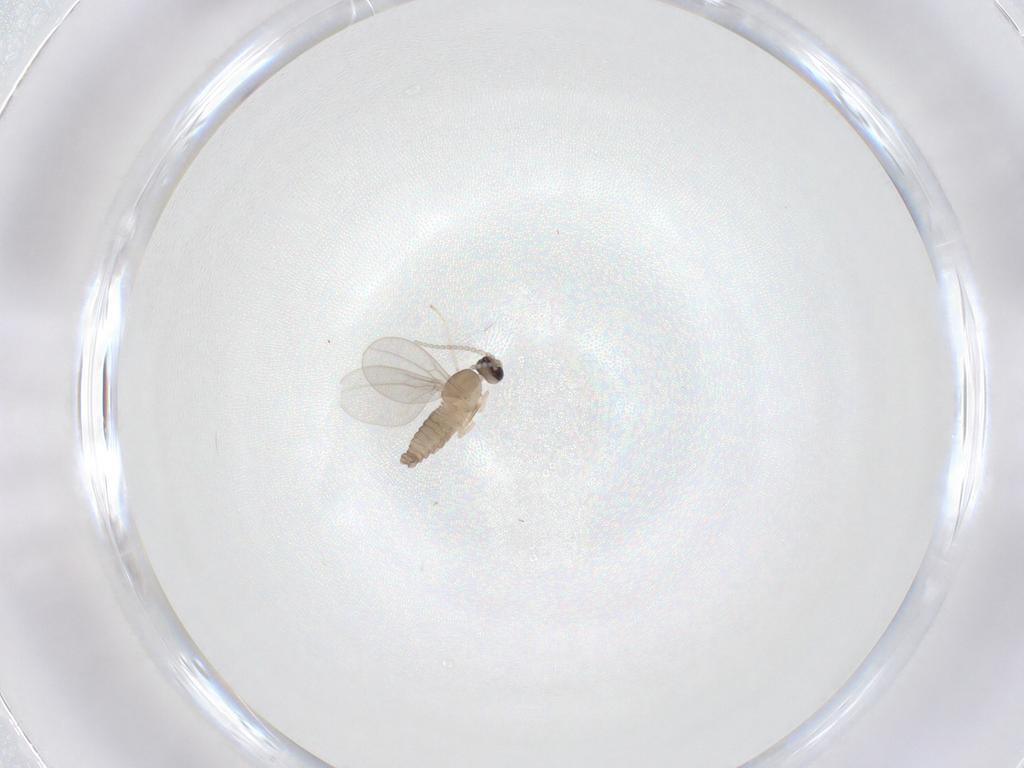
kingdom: Animalia
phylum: Arthropoda
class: Insecta
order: Diptera
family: Cecidomyiidae
